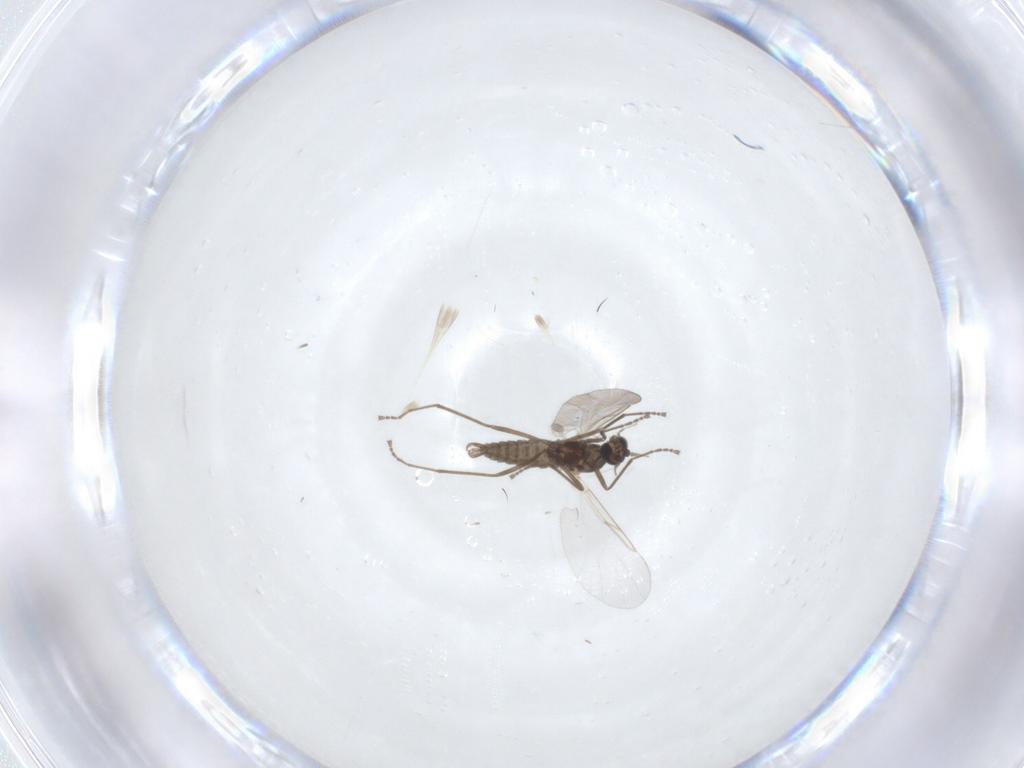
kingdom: Animalia
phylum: Arthropoda
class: Insecta
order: Diptera
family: Cecidomyiidae
